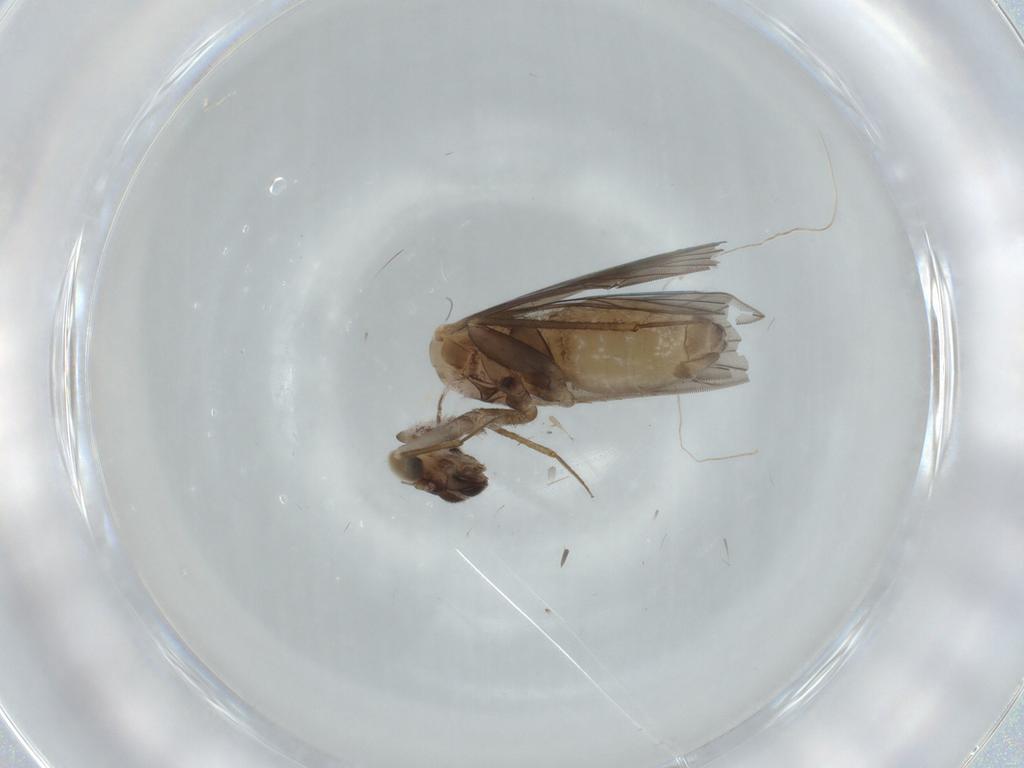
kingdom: Animalia
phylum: Arthropoda
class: Insecta
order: Psocodea
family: Lepidopsocidae
